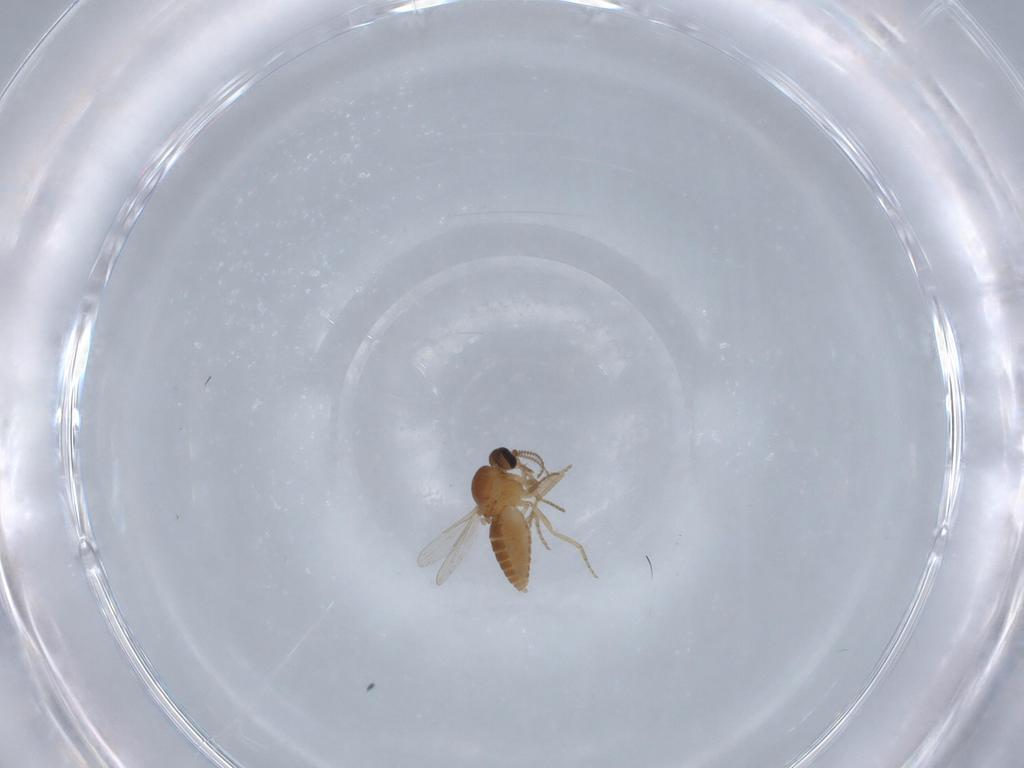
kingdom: Animalia
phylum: Arthropoda
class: Insecta
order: Diptera
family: Ceratopogonidae
